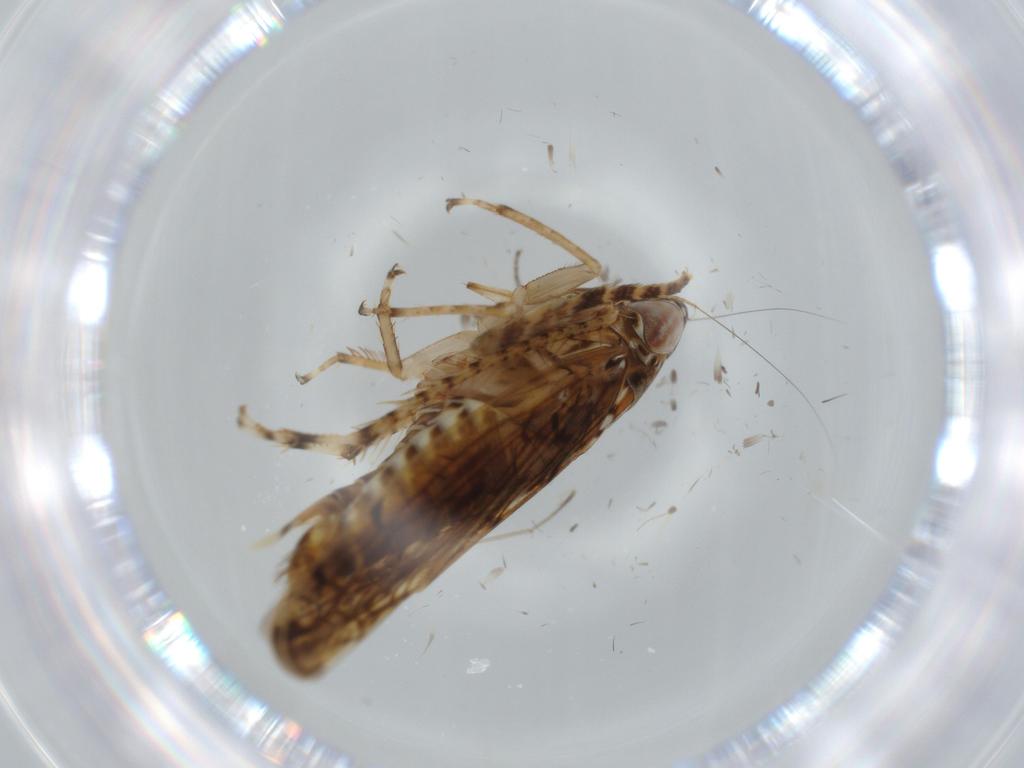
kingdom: Animalia
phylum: Arthropoda
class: Insecta
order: Hemiptera
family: Cicadellidae
